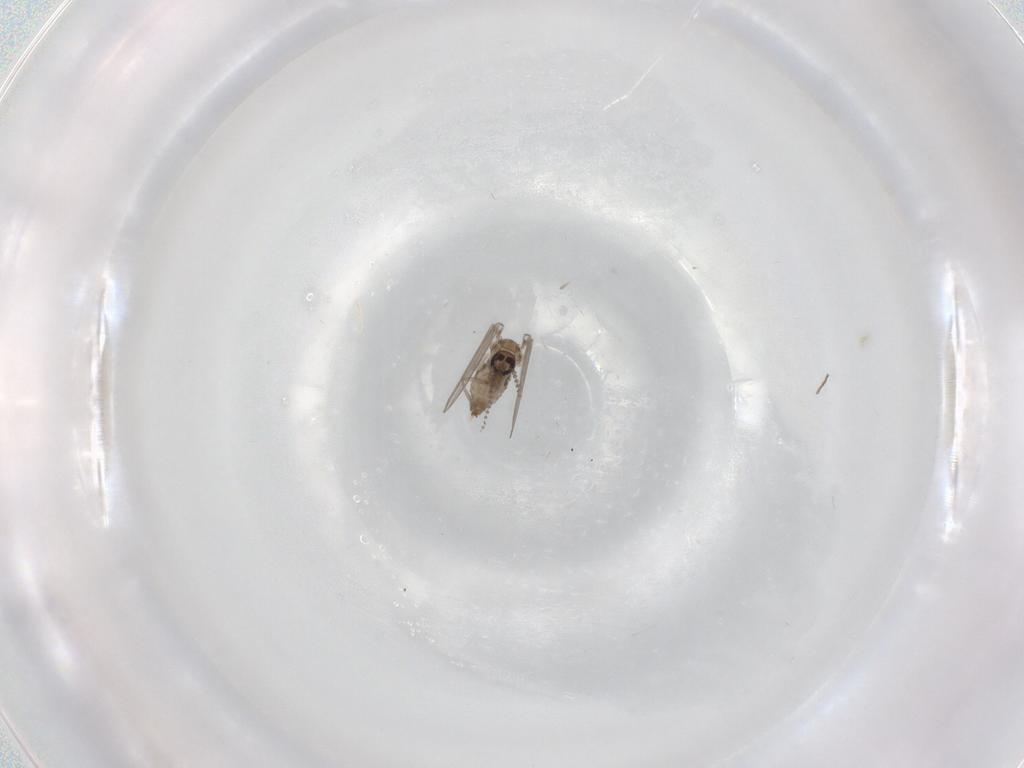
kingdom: Animalia
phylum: Arthropoda
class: Insecta
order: Diptera
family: Psychodidae
